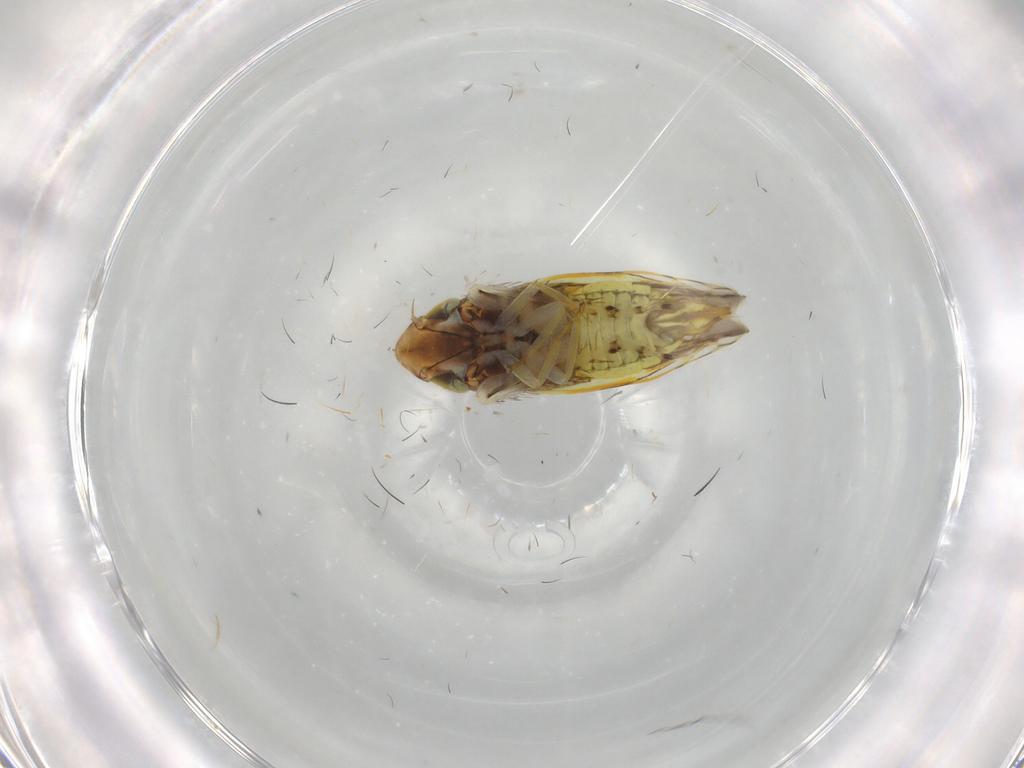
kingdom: Animalia
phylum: Arthropoda
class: Insecta
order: Hemiptera
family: Cicadellidae
